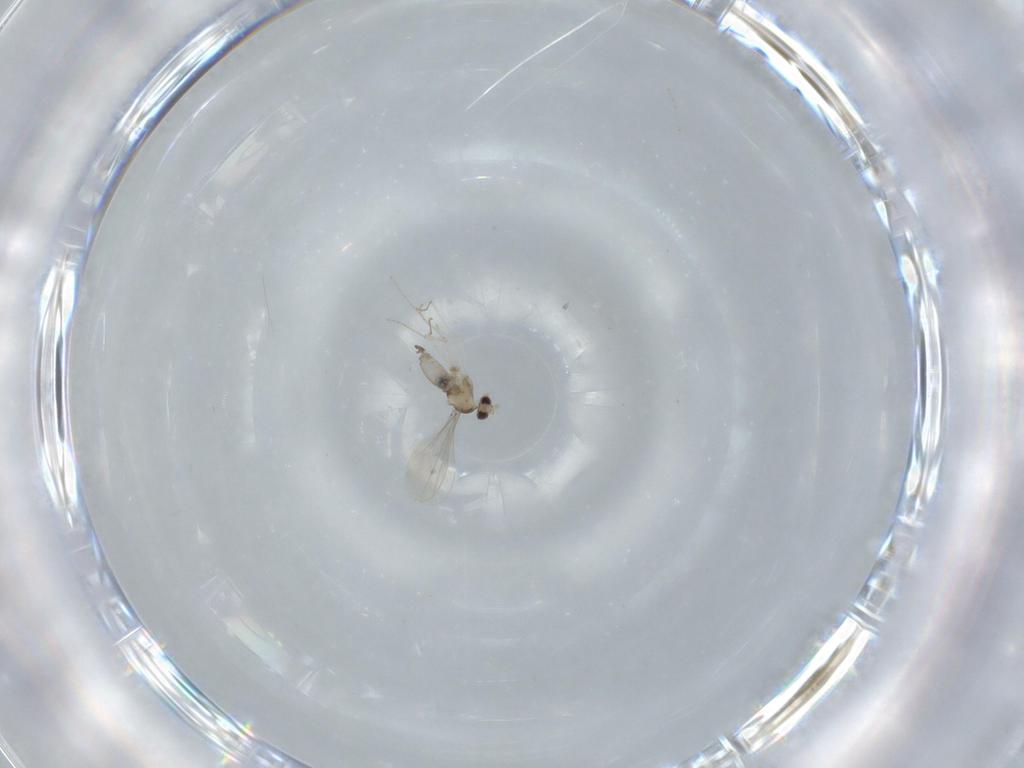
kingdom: Animalia
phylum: Arthropoda
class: Insecta
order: Diptera
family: Cecidomyiidae
